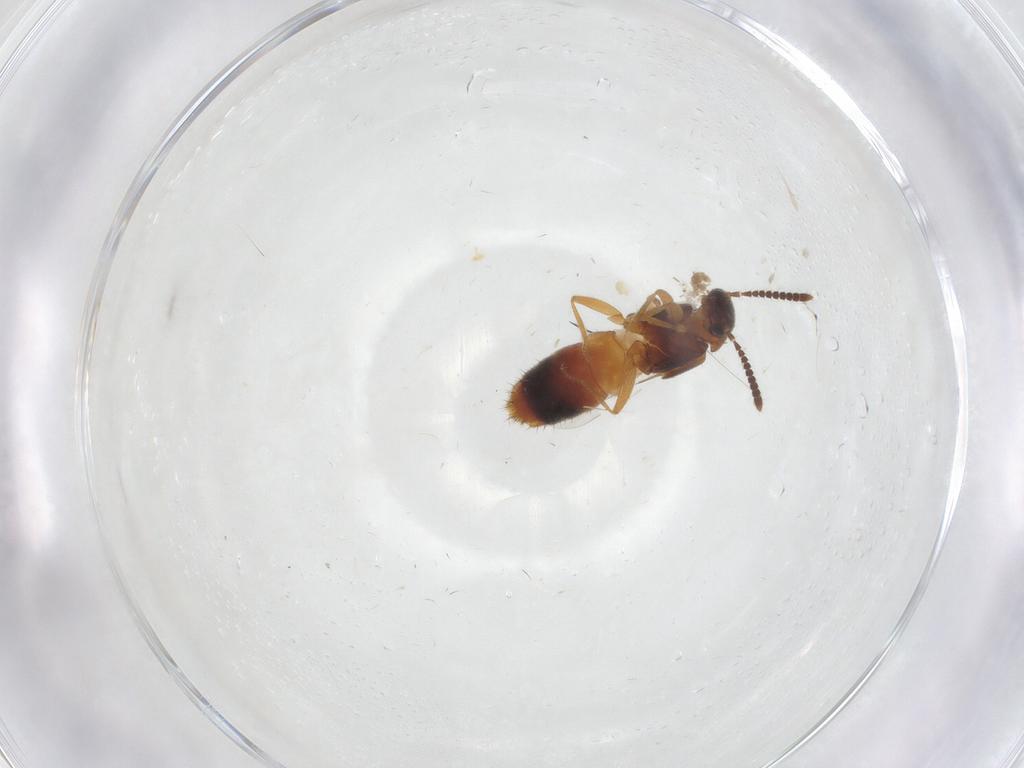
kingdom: Animalia
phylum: Arthropoda
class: Insecta
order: Coleoptera
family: Staphylinidae
